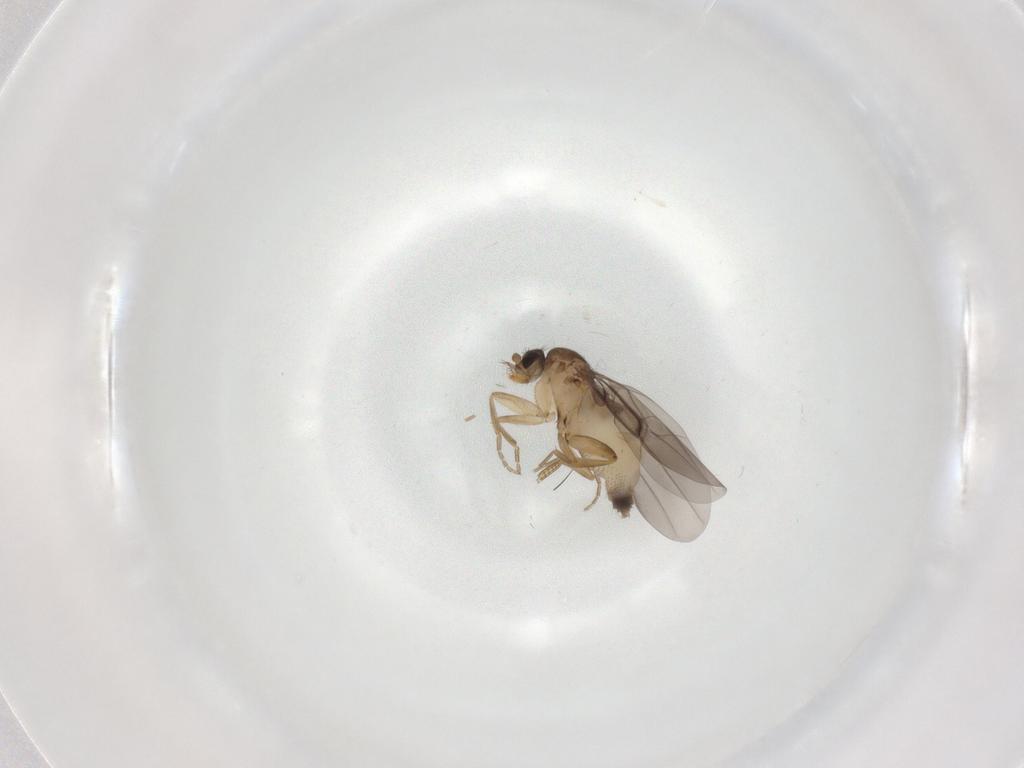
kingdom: Animalia
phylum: Arthropoda
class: Insecta
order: Diptera
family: Phoridae
